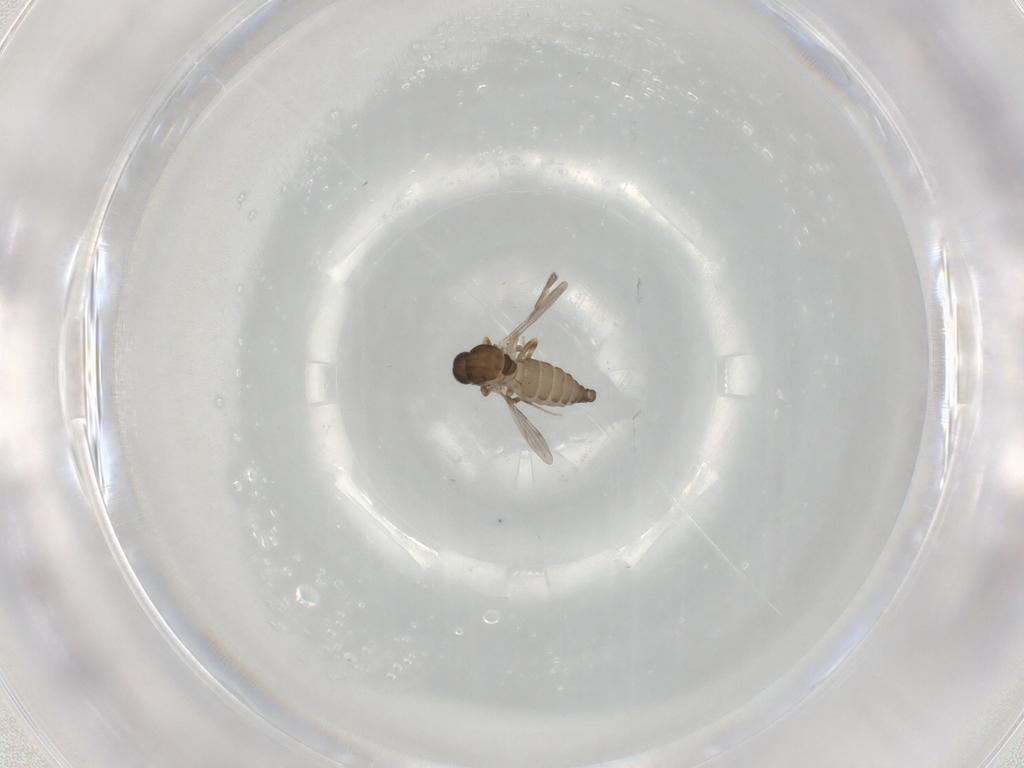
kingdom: Animalia
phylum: Arthropoda
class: Insecta
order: Diptera
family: Ceratopogonidae
